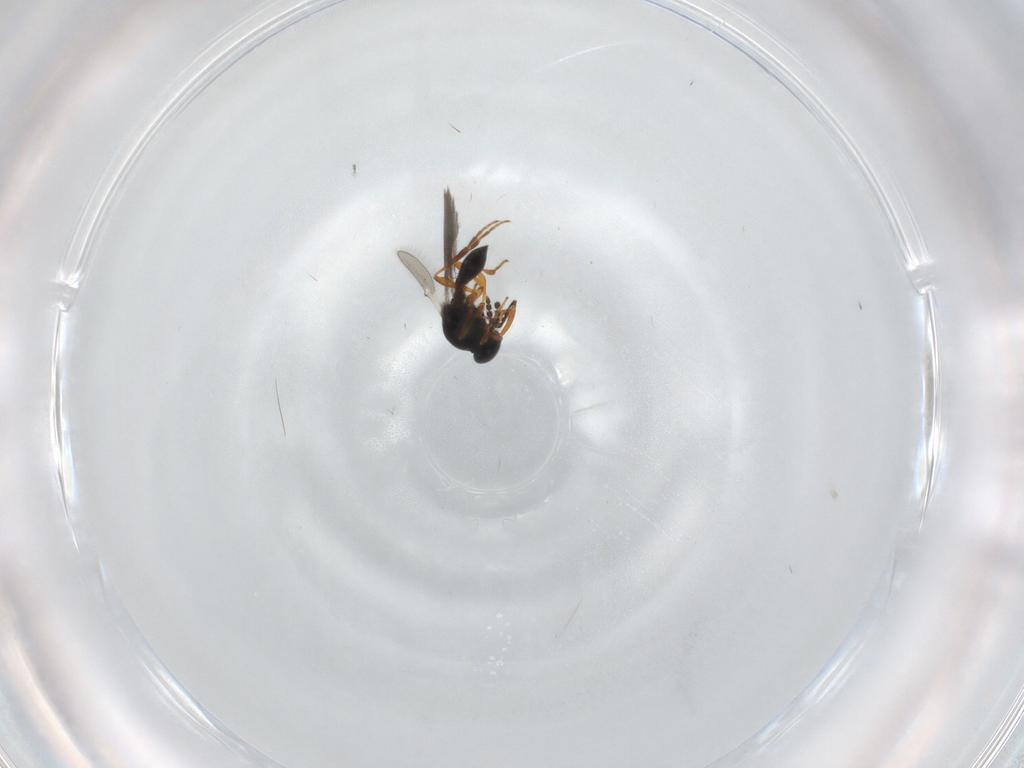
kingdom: Animalia
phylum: Arthropoda
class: Insecta
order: Hymenoptera
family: Platygastridae
